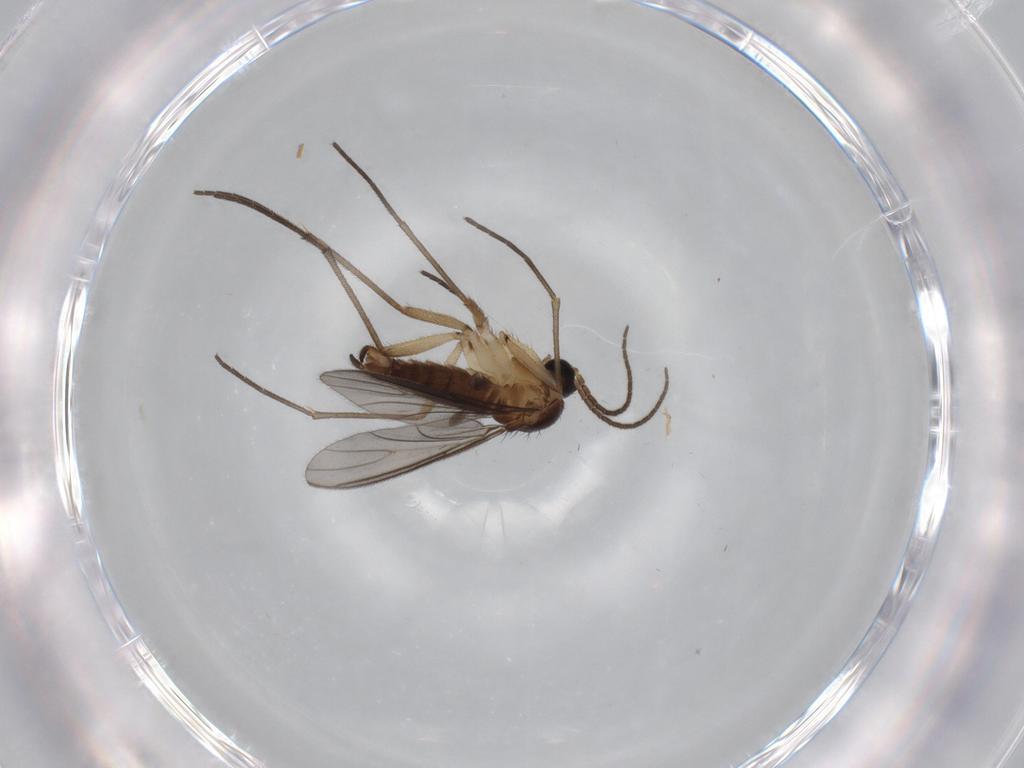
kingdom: Animalia
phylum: Arthropoda
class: Insecta
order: Diptera
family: Sciaridae
